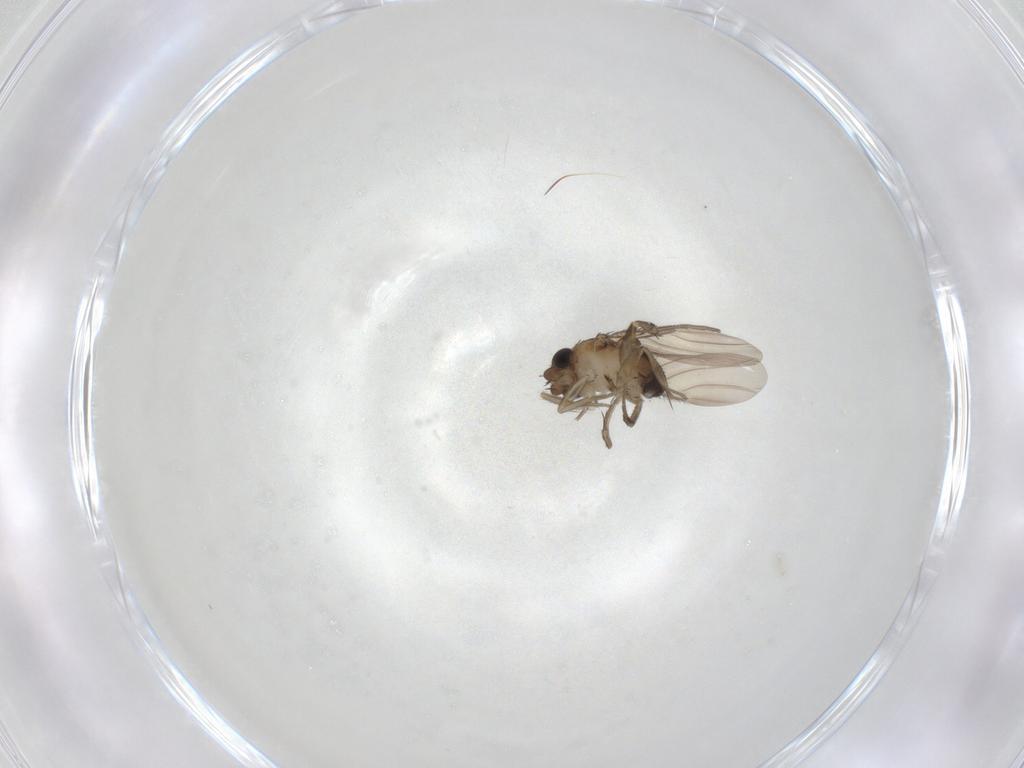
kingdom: Animalia
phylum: Arthropoda
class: Insecta
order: Diptera
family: Phoridae
